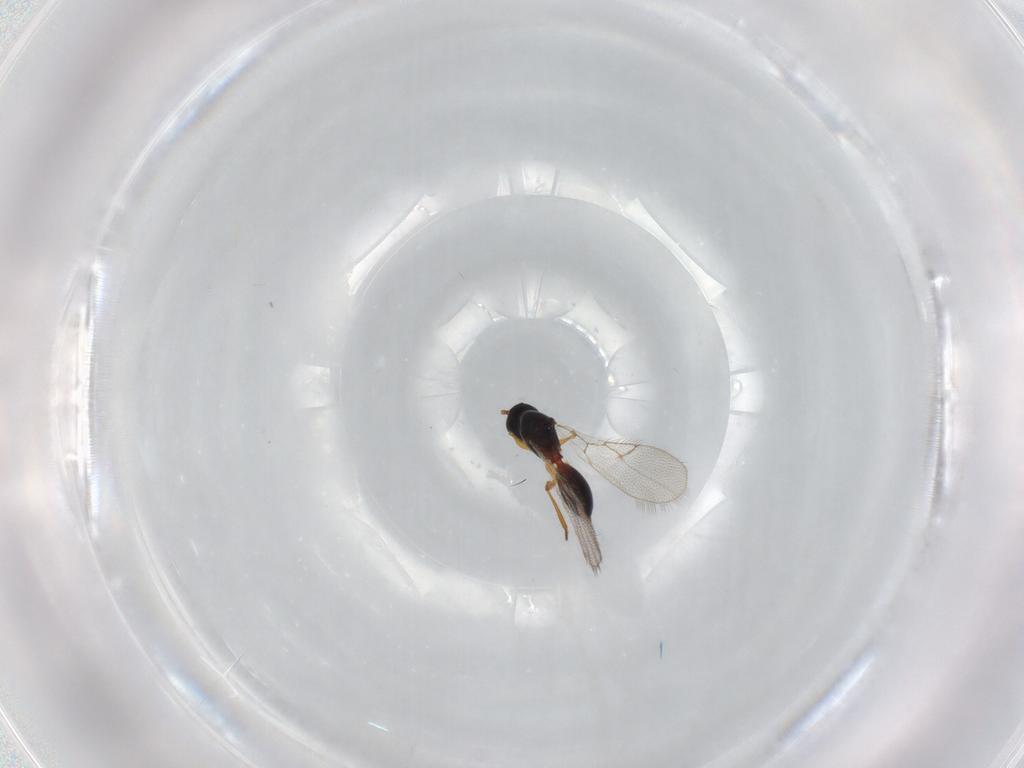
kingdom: Animalia
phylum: Arthropoda
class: Insecta
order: Hymenoptera
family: Figitidae
